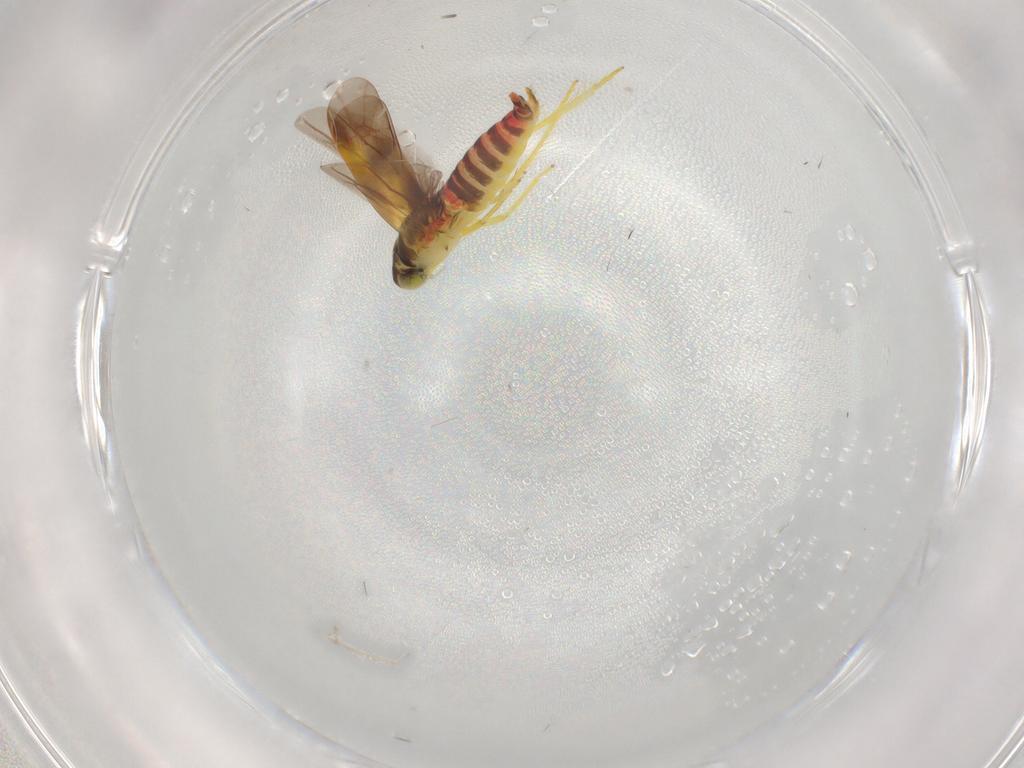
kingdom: Animalia
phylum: Arthropoda
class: Insecta
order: Hemiptera
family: Cicadellidae
